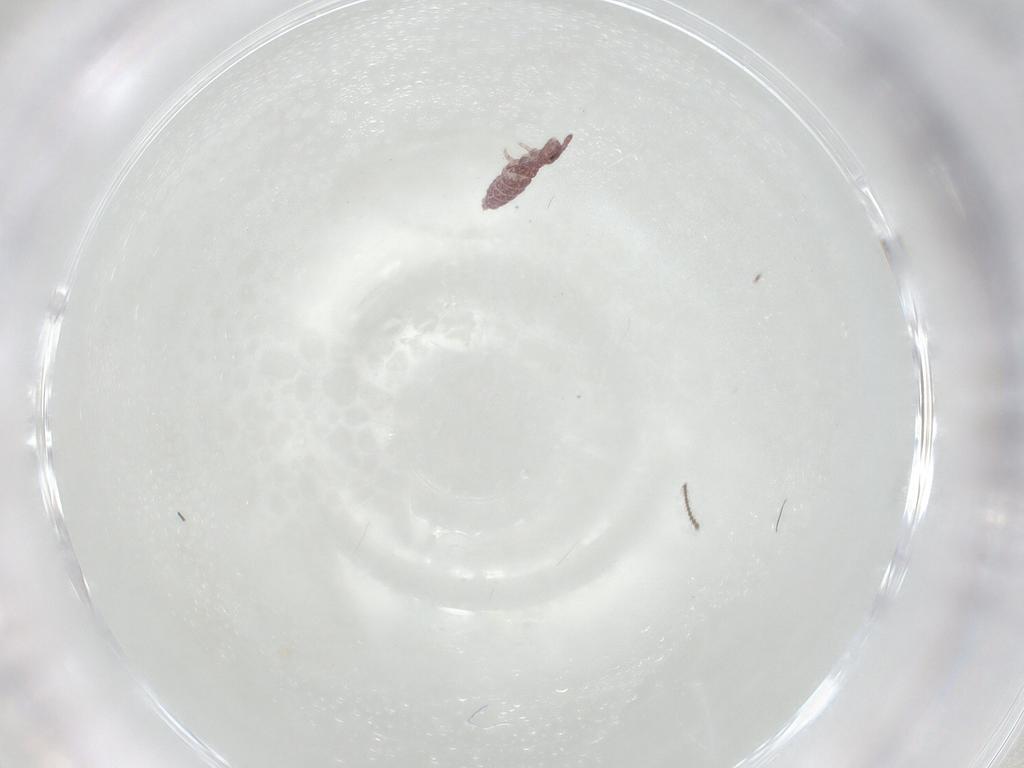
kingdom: Animalia
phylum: Arthropoda
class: Collembola
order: Poduromorpha
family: Hypogastruridae
